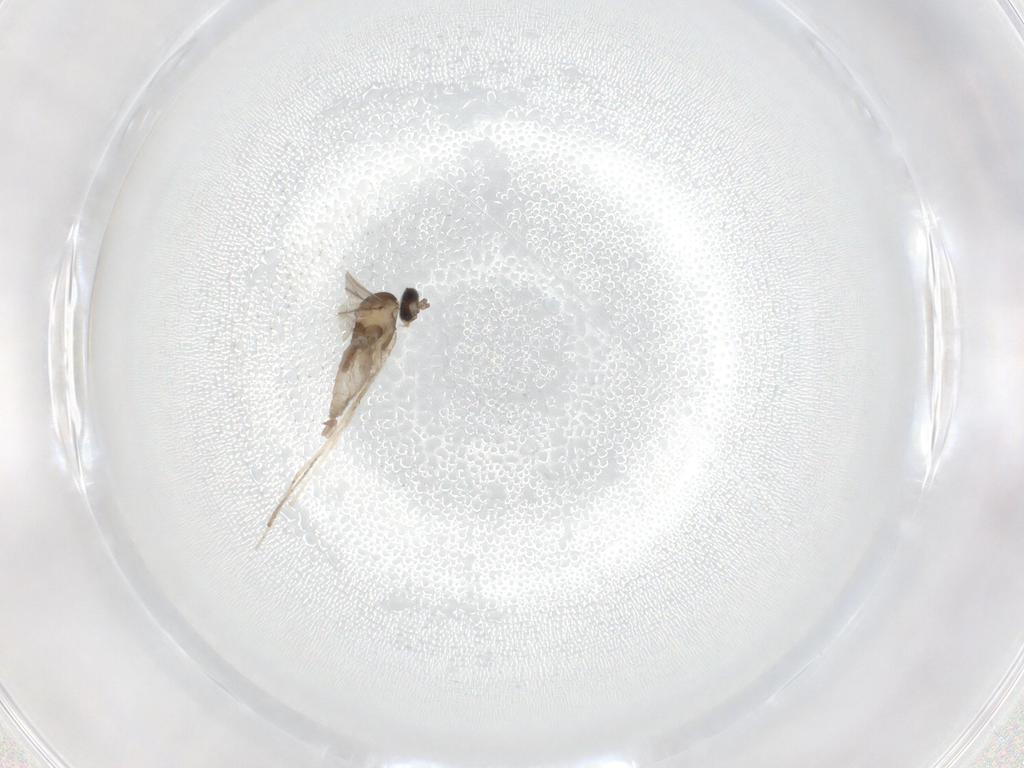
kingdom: Animalia
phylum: Arthropoda
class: Insecta
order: Diptera
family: Cecidomyiidae
